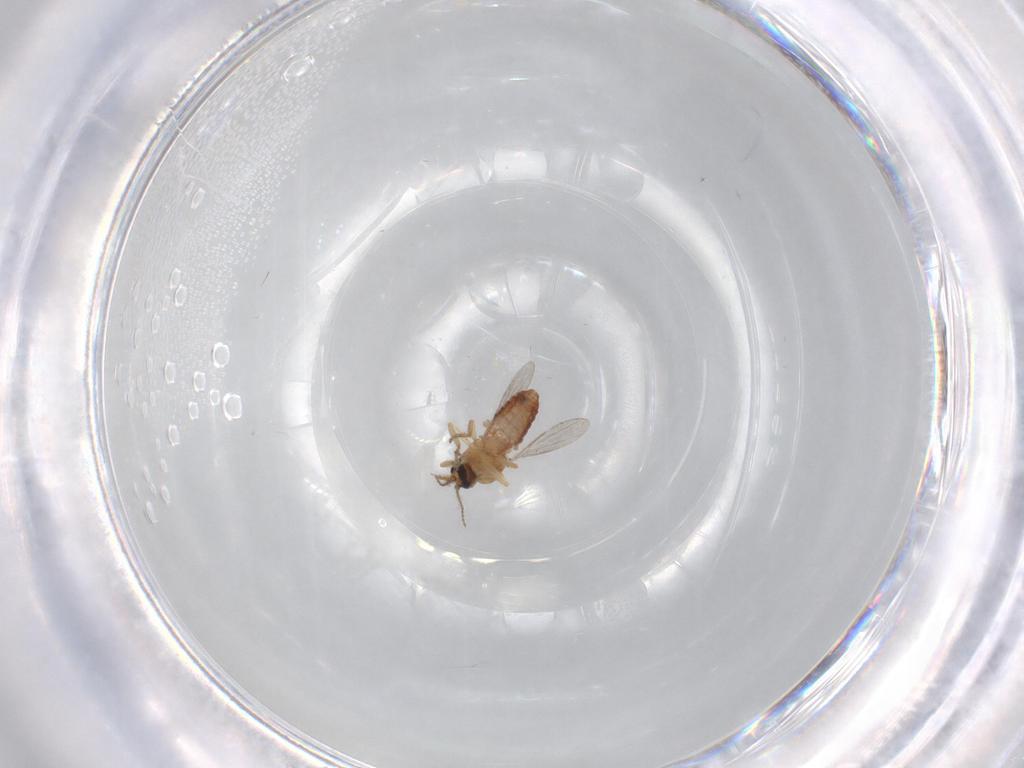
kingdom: Animalia
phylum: Arthropoda
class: Insecta
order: Diptera
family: Ceratopogonidae
